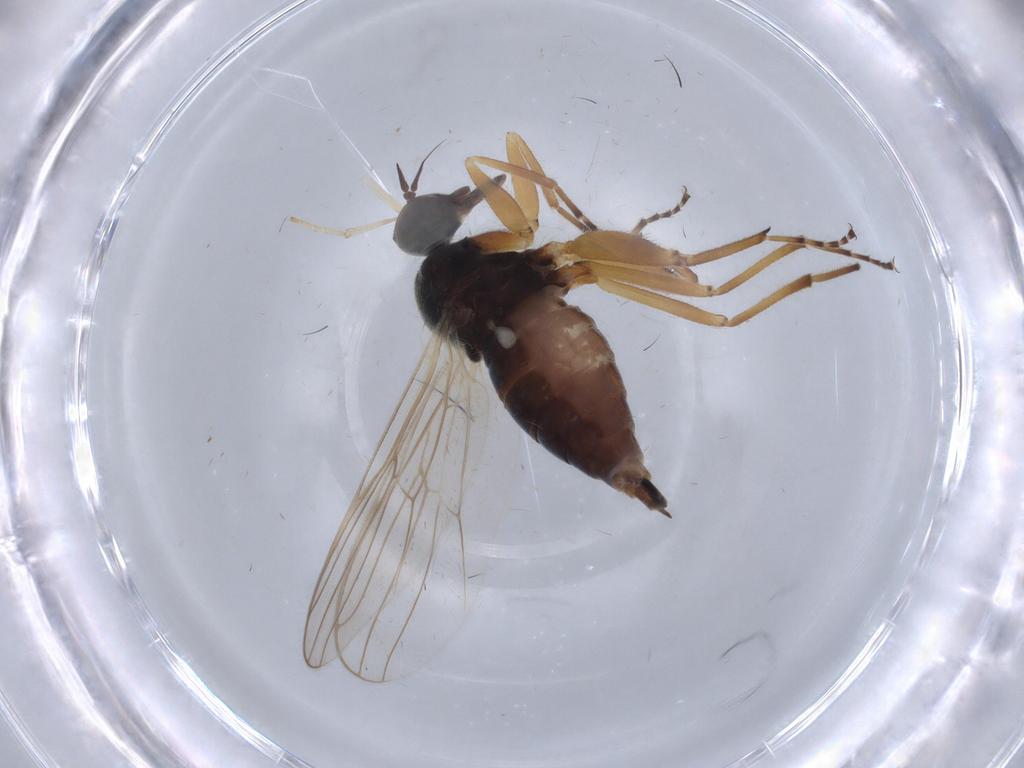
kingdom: Animalia
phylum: Arthropoda
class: Insecta
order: Diptera
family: Hybotidae
